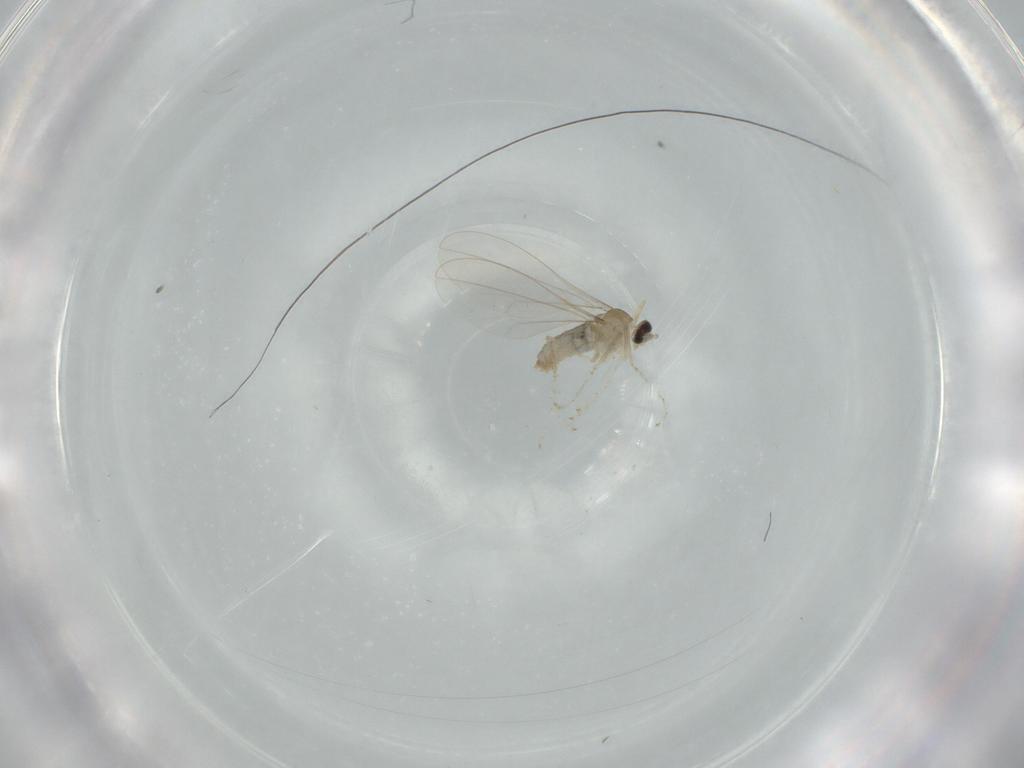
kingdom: Animalia
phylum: Arthropoda
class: Insecta
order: Diptera
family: Cecidomyiidae
